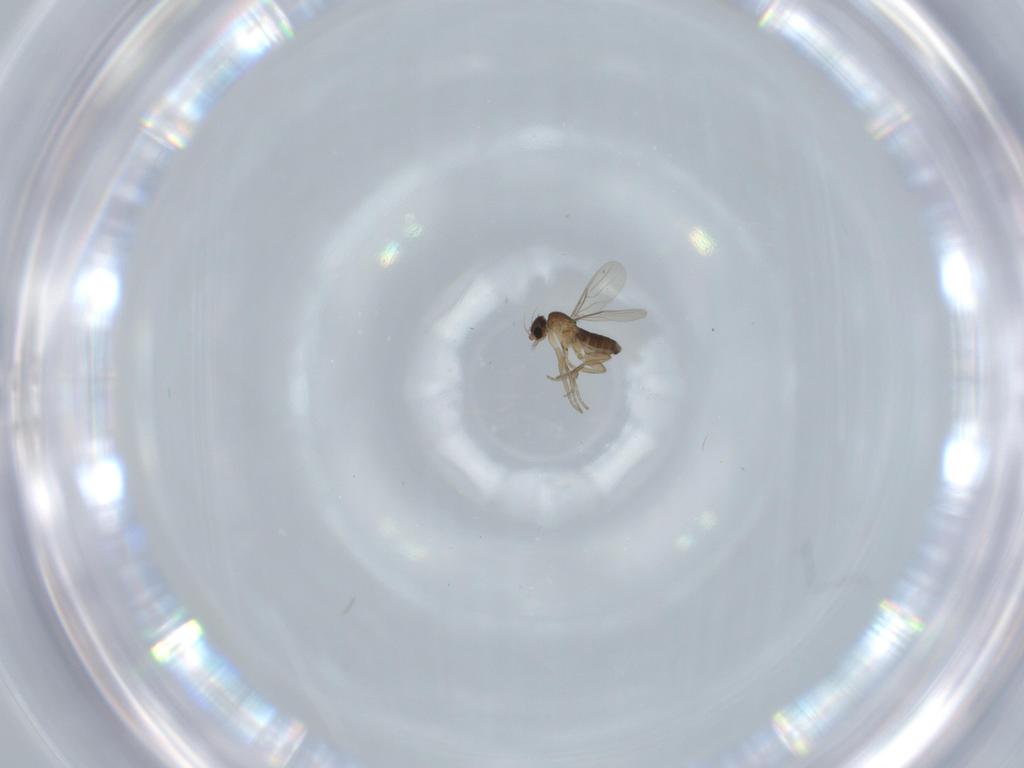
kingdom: Animalia
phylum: Arthropoda
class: Insecta
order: Diptera
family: Phoridae
